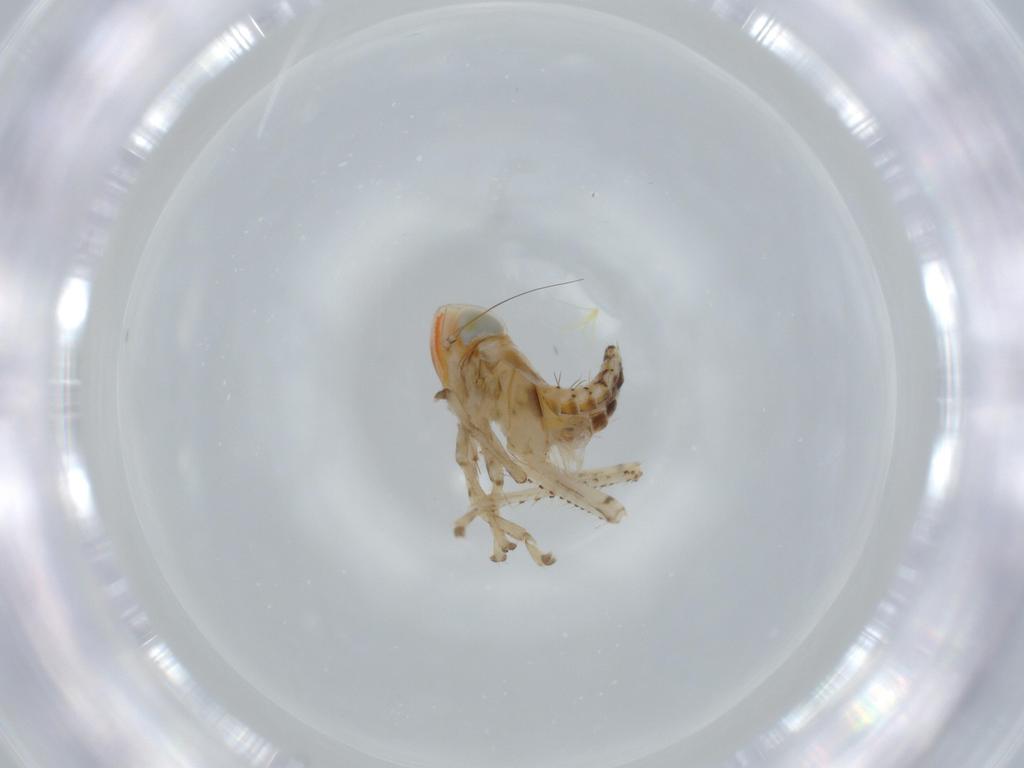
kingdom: Animalia
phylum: Arthropoda
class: Insecta
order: Hemiptera
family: Cicadellidae
